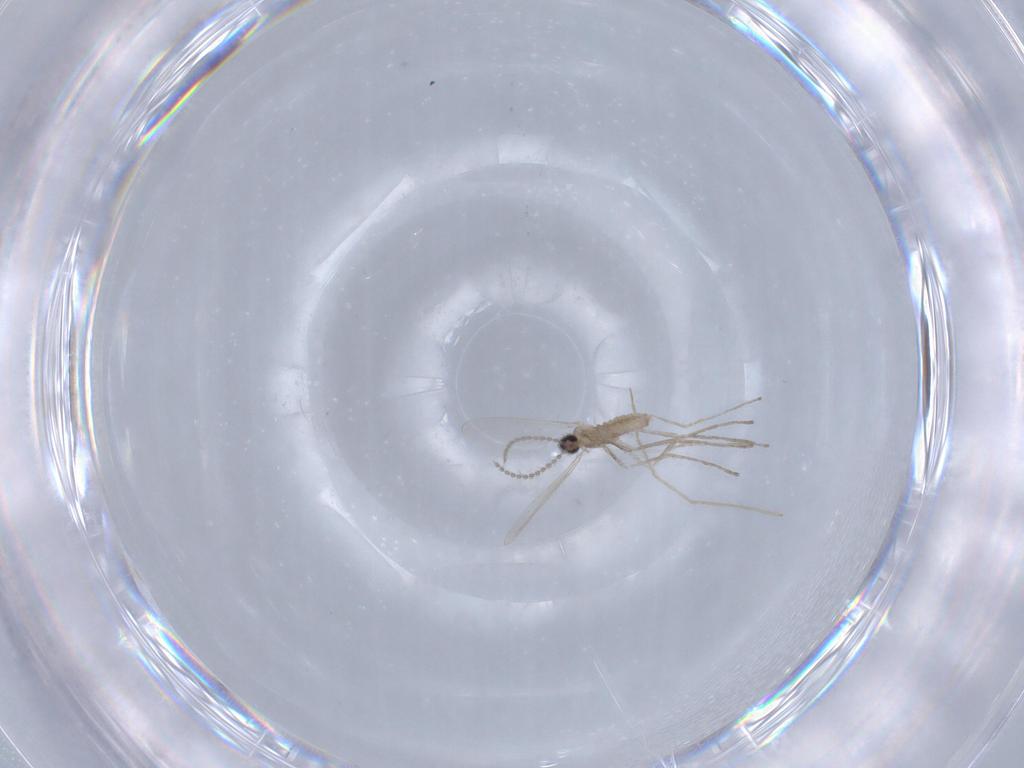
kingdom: Animalia
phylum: Arthropoda
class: Insecta
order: Diptera
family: Cecidomyiidae
